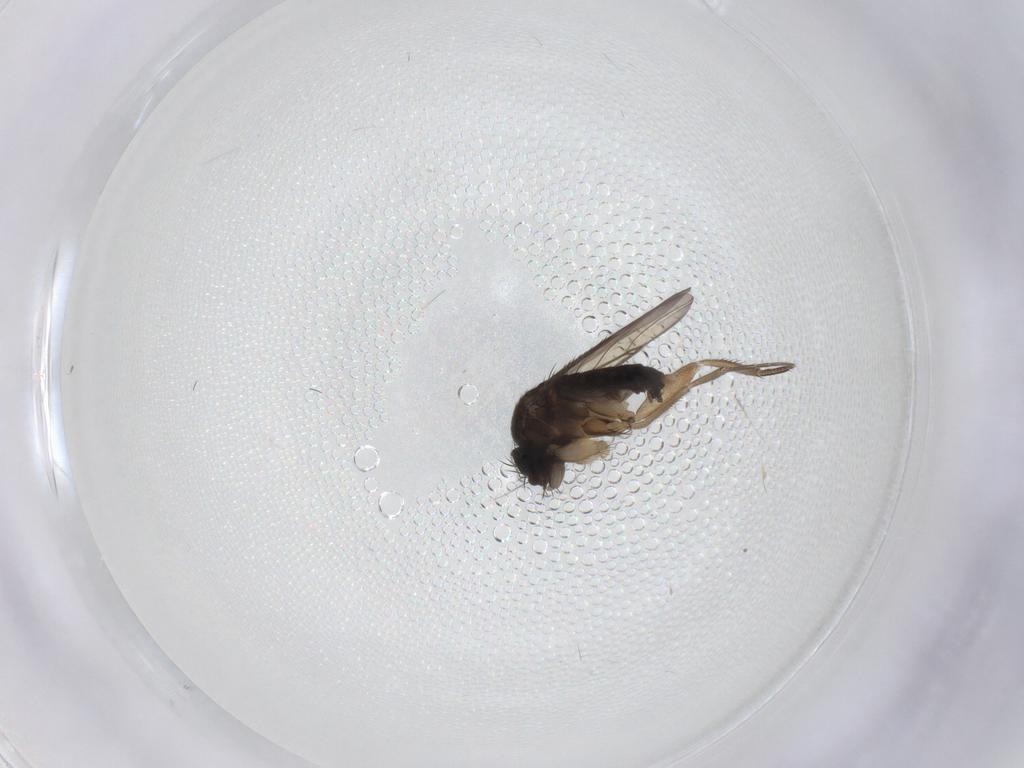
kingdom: Animalia
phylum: Arthropoda
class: Insecta
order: Diptera
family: Phoridae
